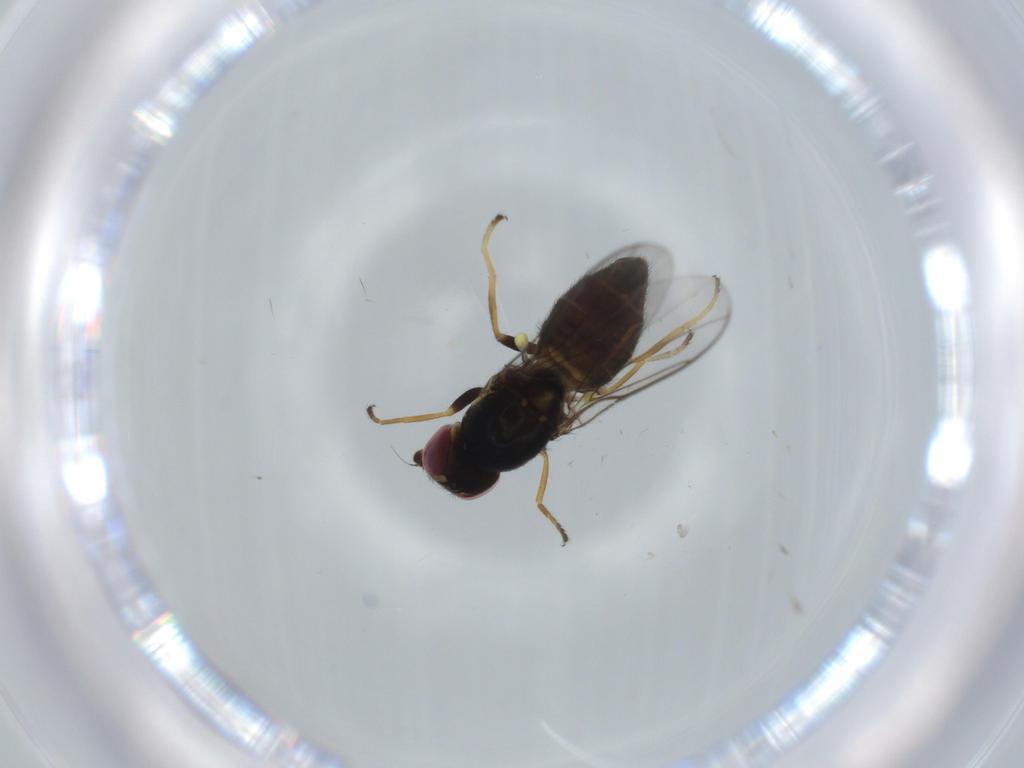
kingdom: Animalia
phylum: Arthropoda
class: Insecta
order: Diptera
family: Chloropidae
